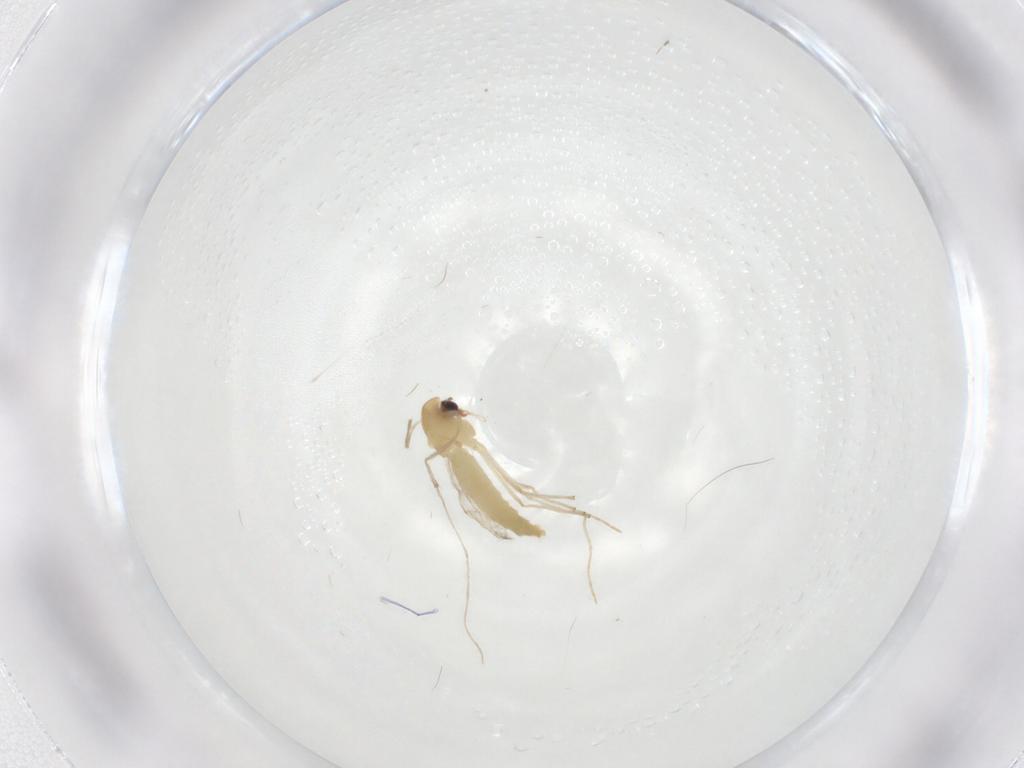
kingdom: Animalia
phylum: Arthropoda
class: Insecta
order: Diptera
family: Chironomidae
